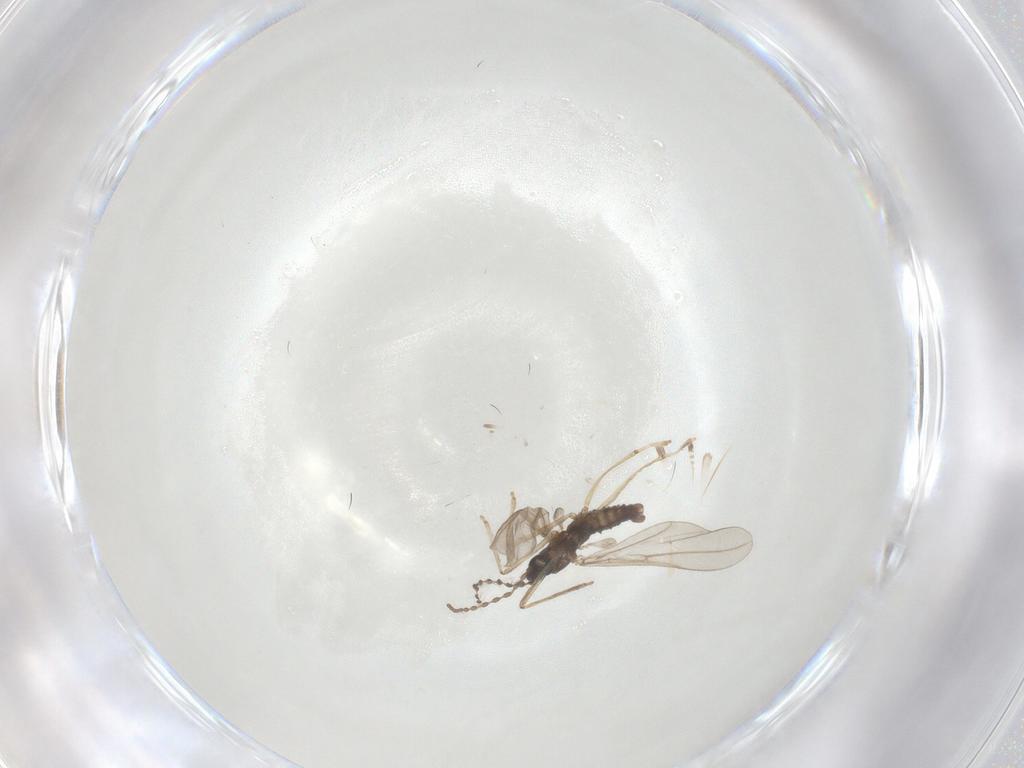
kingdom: Animalia
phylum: Arthropoda
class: Insecta
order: Diptera
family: Cecidomyiidae
